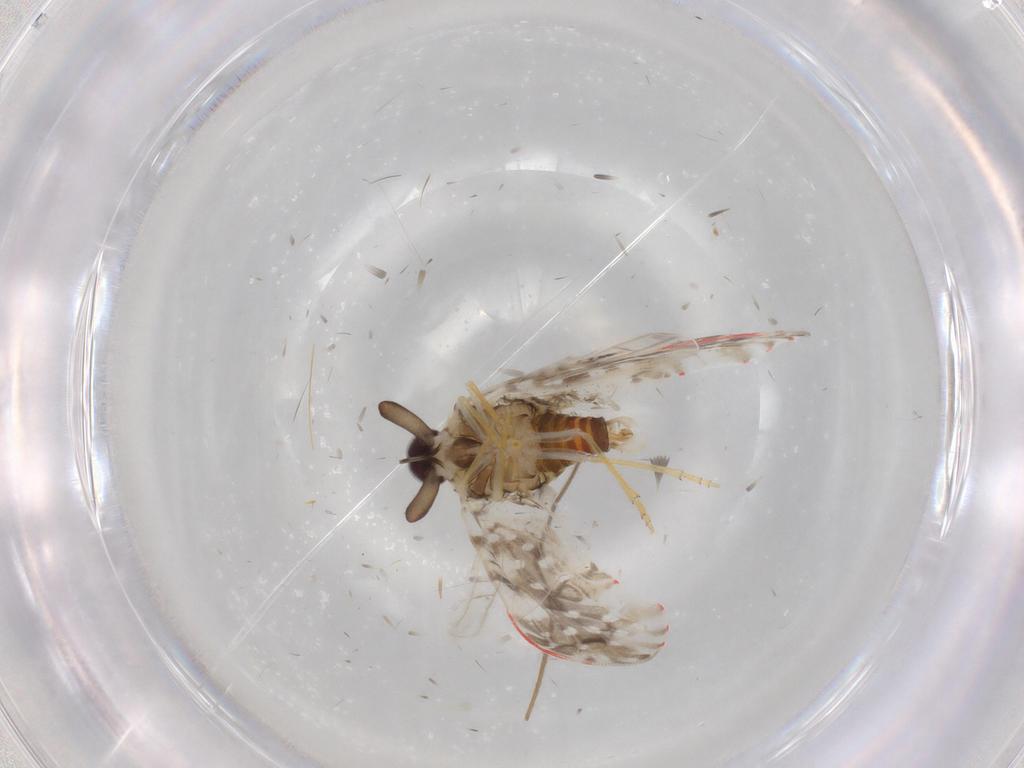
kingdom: Animalia
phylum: Arthropoda
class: Insecta
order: Hemiptera
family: Derbidae
